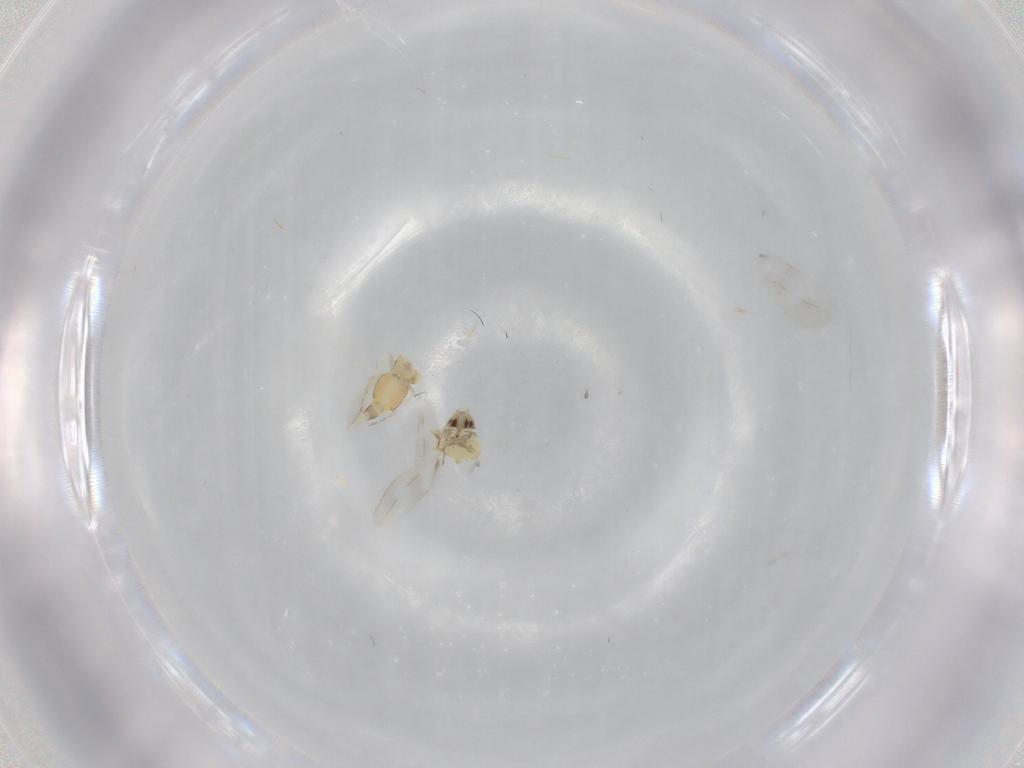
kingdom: Animalia
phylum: Arthropoda
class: Insecta
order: Hemiptera
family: Aleyrodidae
